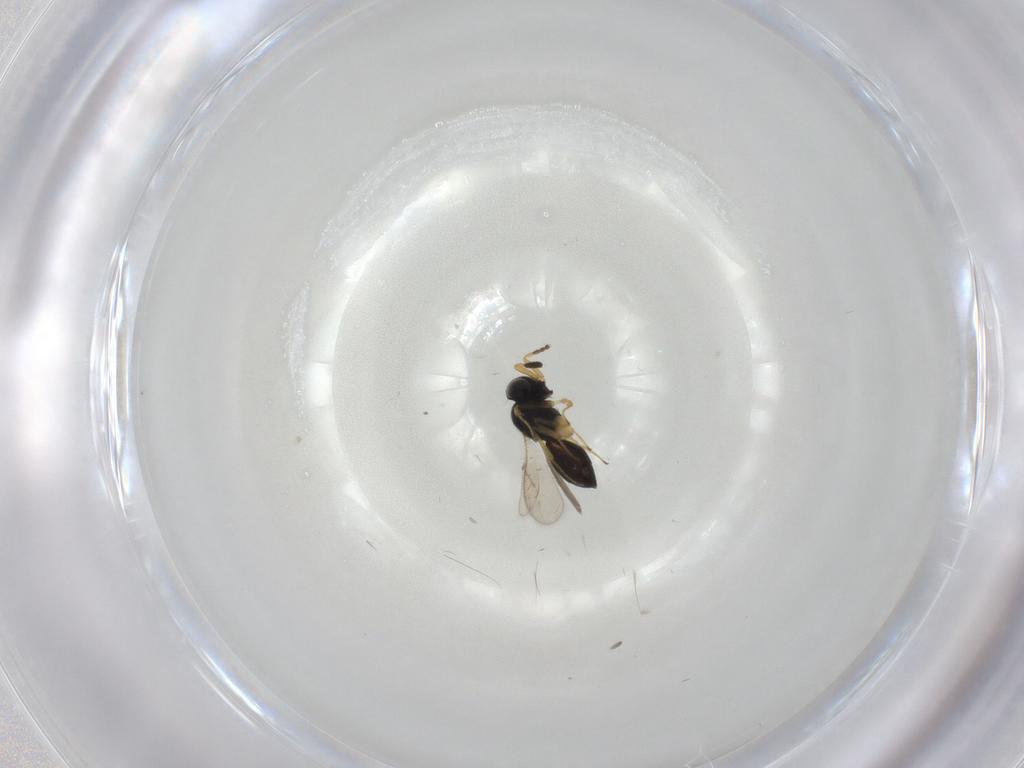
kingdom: Animalia
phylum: Arthropoda
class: Insecta
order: Hymenoptera
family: Scelionidae
